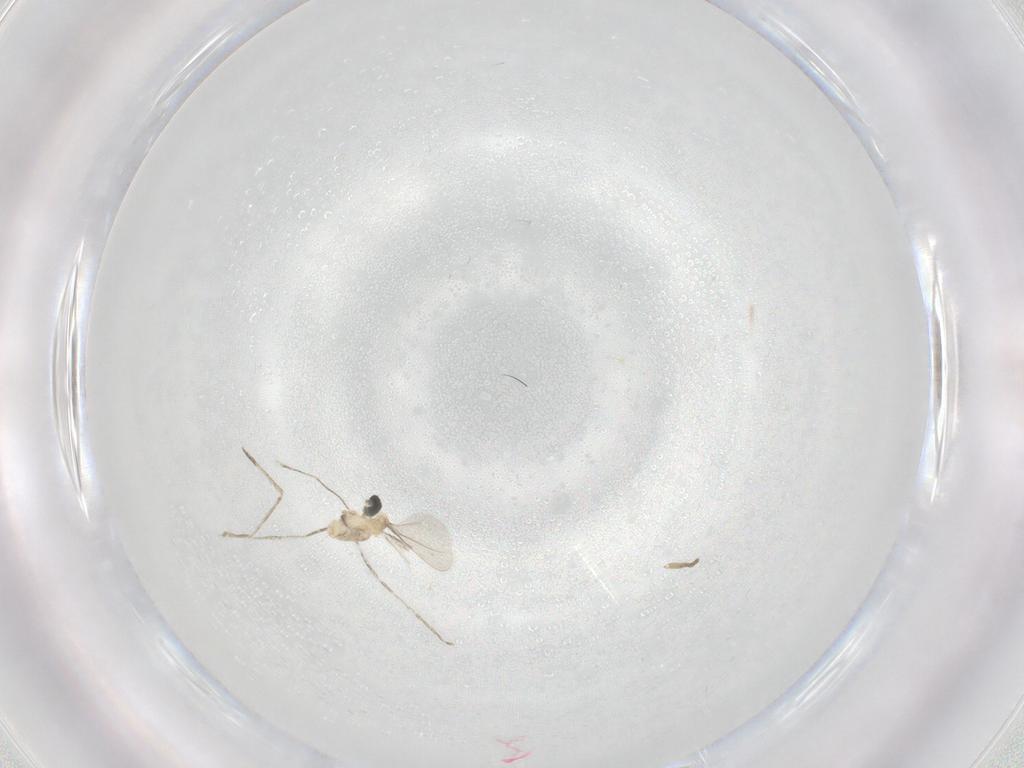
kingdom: Animalia
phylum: Arthropoda
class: Insecta
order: Diptera
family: Cecidomyiidae
